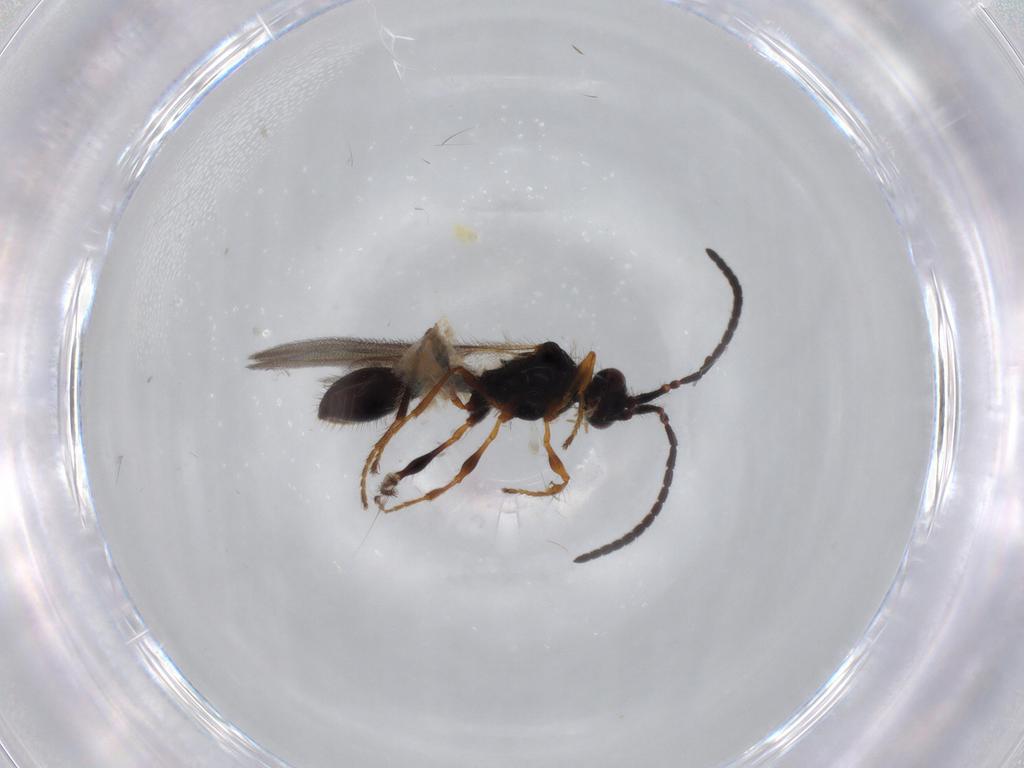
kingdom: Animalia
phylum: Arthropoda
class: Insecta
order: Hymenoptera
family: Diapriidae
